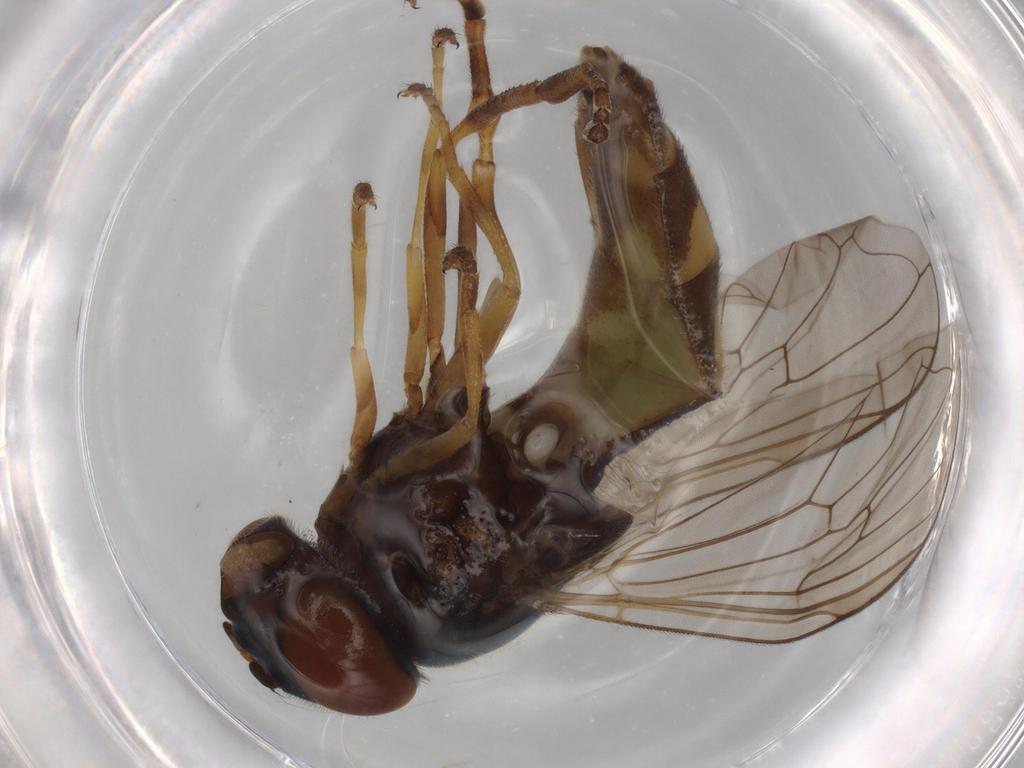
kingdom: Animalia
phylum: Arthropoda
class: Insecta
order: Diptera
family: Syrphidae
